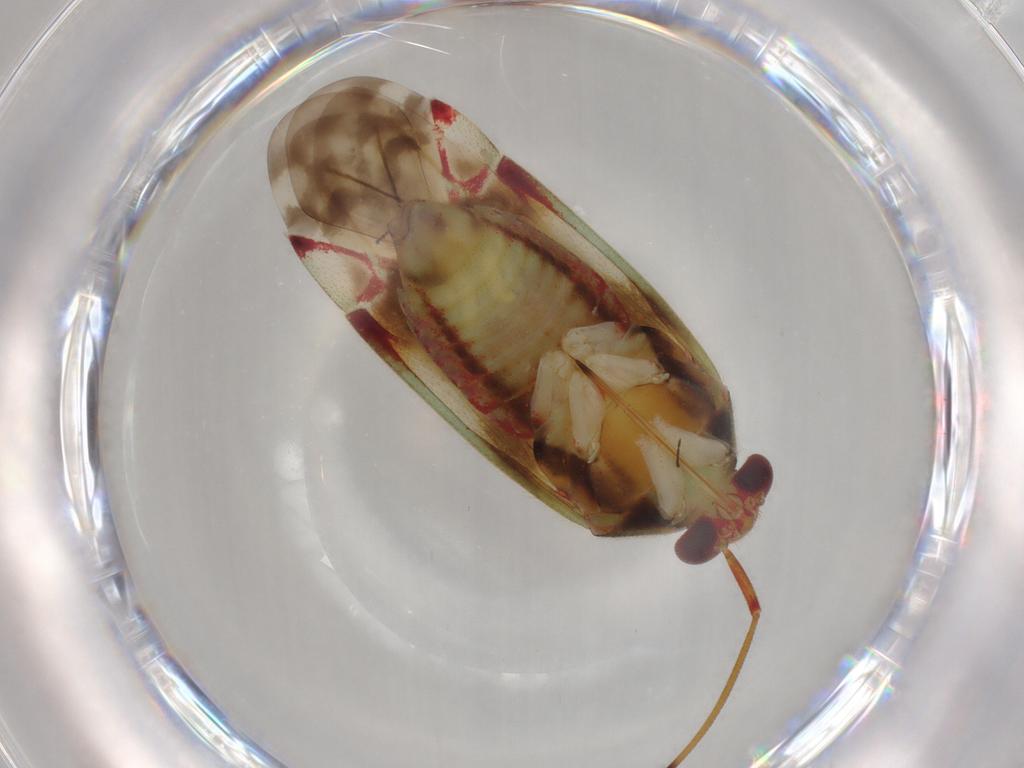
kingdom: Animalia
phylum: Arthropoda
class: Insecta
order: Hemiptera
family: Miridae
